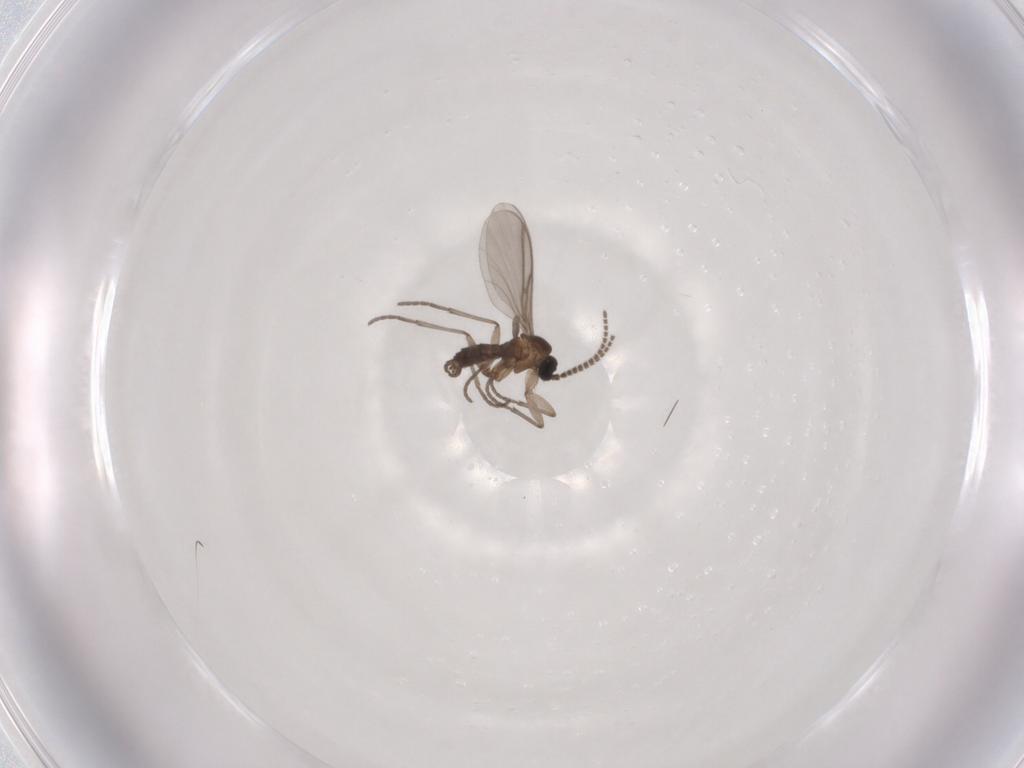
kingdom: Animalia
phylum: Arthropoda
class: Insecta
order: Diptera
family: Sciaridae
